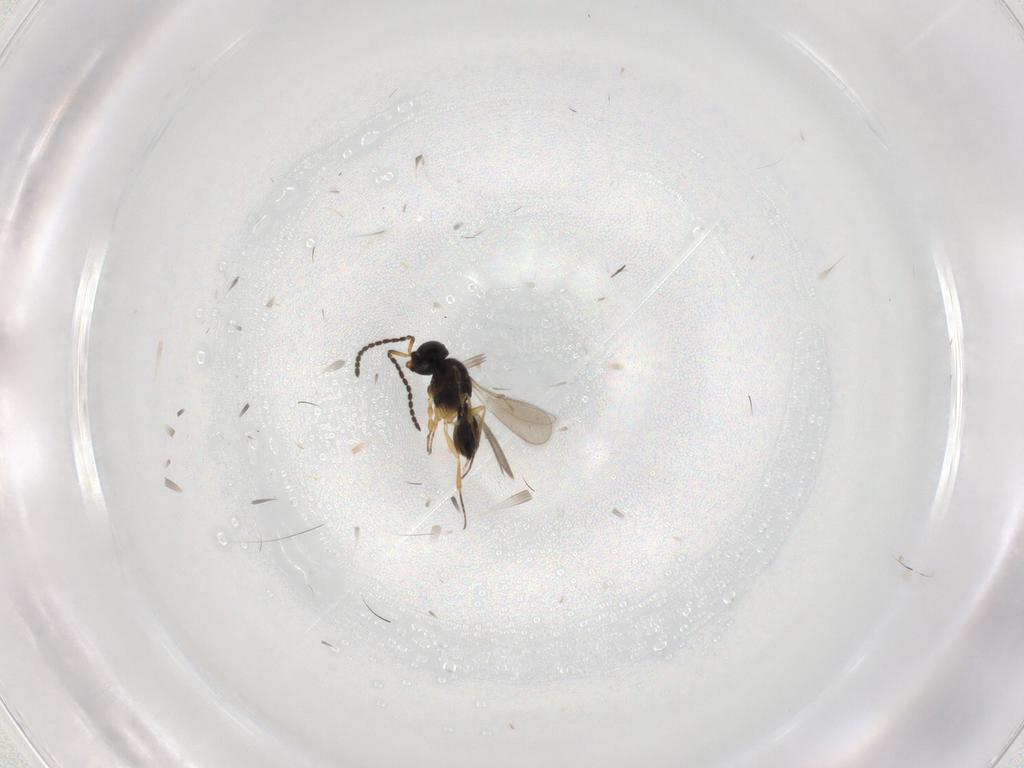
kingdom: Animalia
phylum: Arthropoda
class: Insecta
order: Hymenoptera
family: Scelionidae
